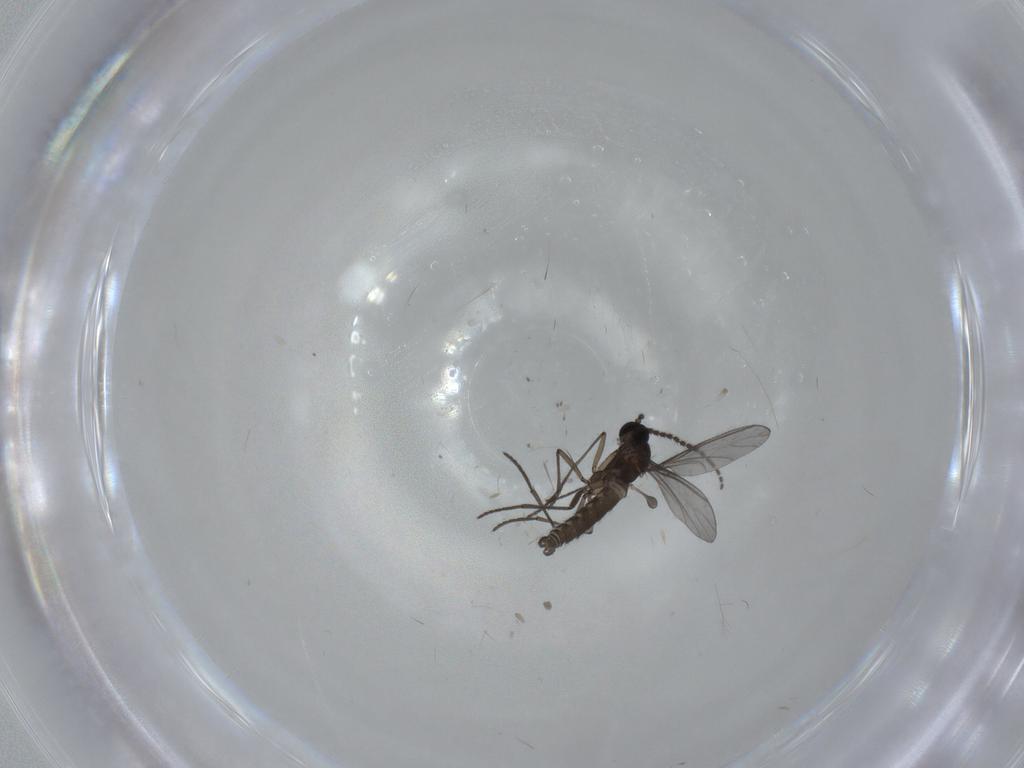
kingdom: Animalia
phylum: Arthropoda
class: Insecta
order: Diptera
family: Sciaridae
